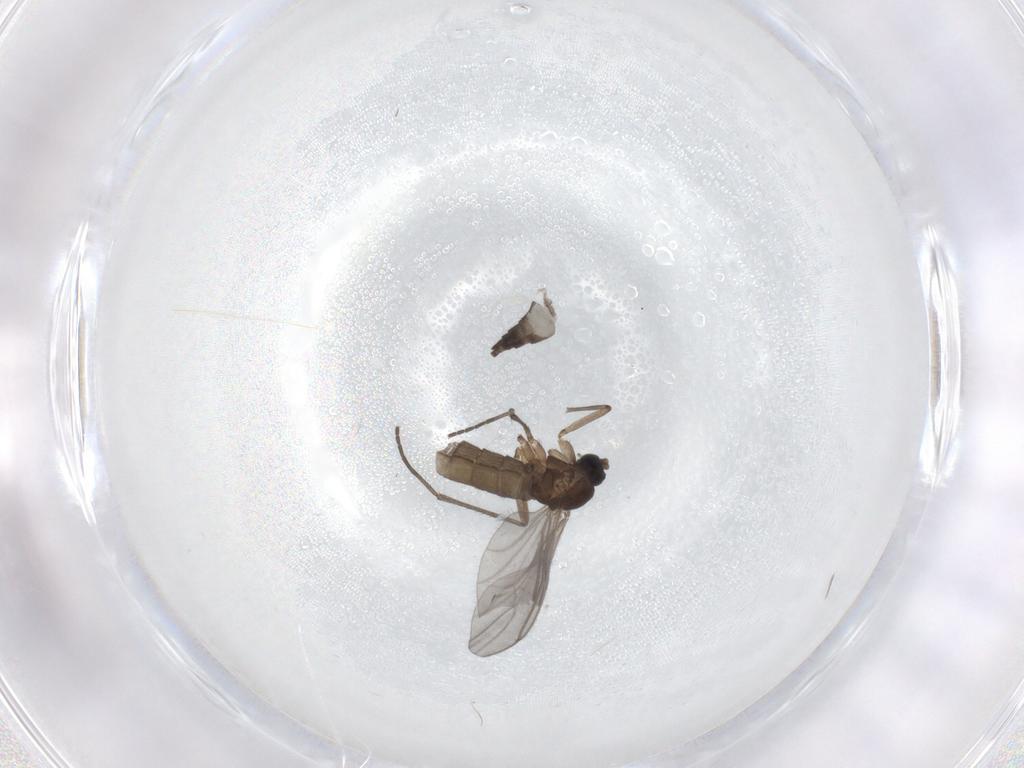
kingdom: Animalia
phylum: Arthropoda
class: Insecta
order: Diptera
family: Sciaridae
